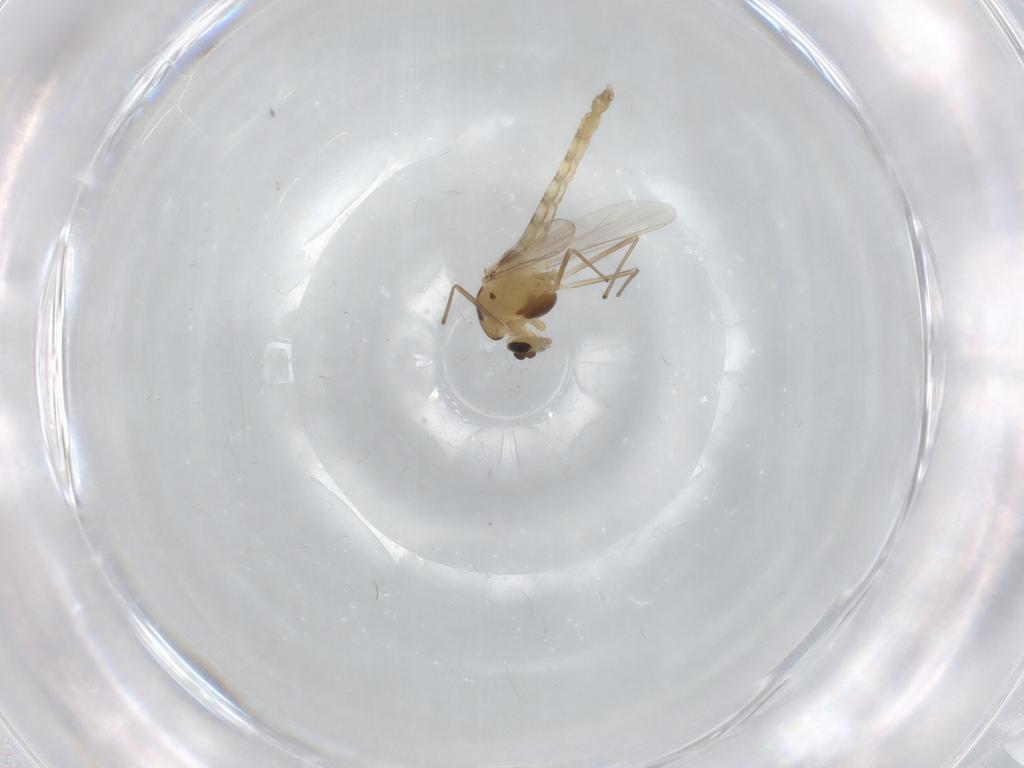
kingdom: Animalia
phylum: Arthropoda
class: Insecta
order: Diptera
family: Chironomidae
